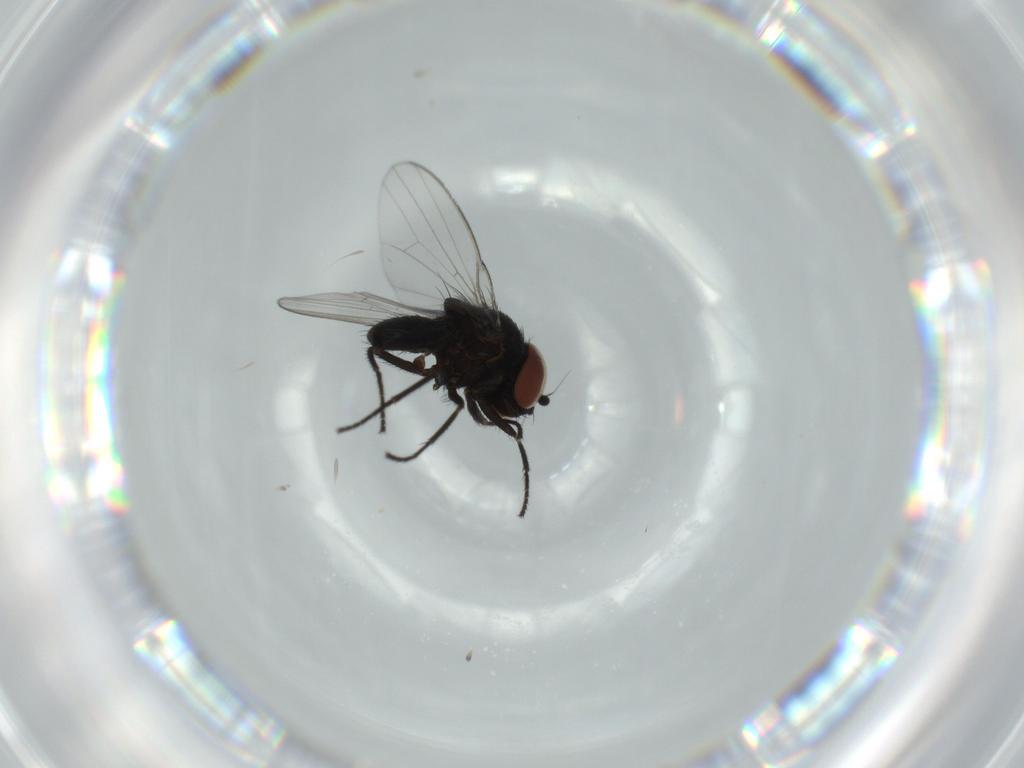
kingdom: Animalia
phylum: Arthropoda
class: Insecta
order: Diptera
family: Milichiidae
